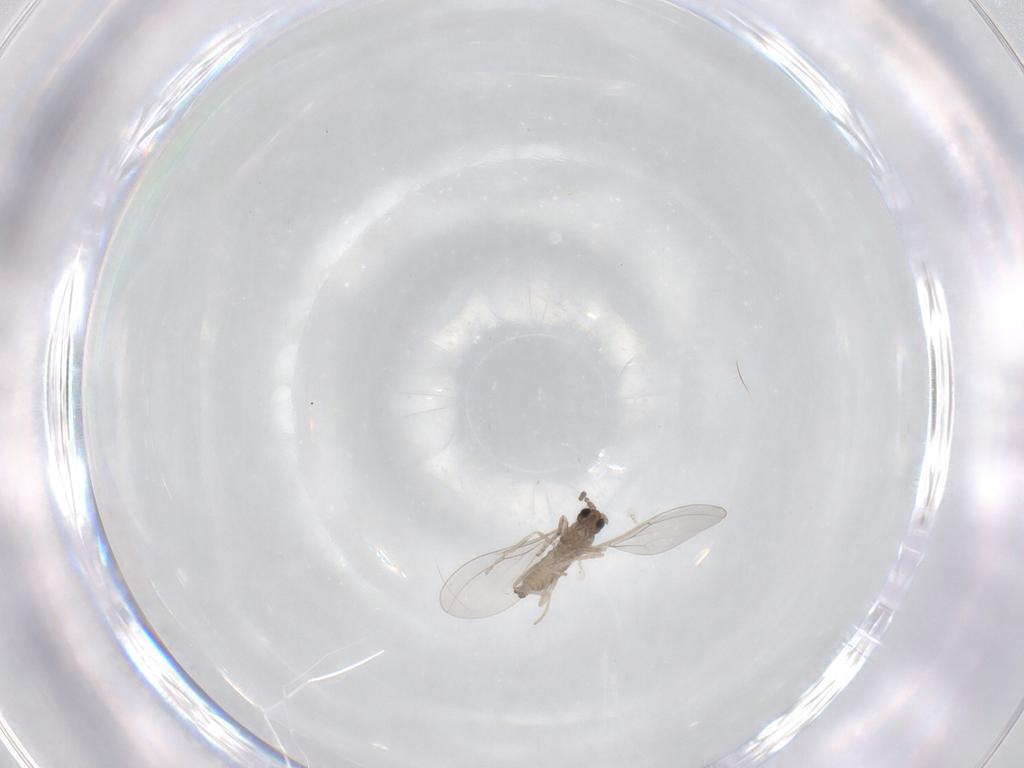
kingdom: Animalia
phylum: Arthropoda
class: Insecta
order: Diptera
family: Cecidomyiidae
